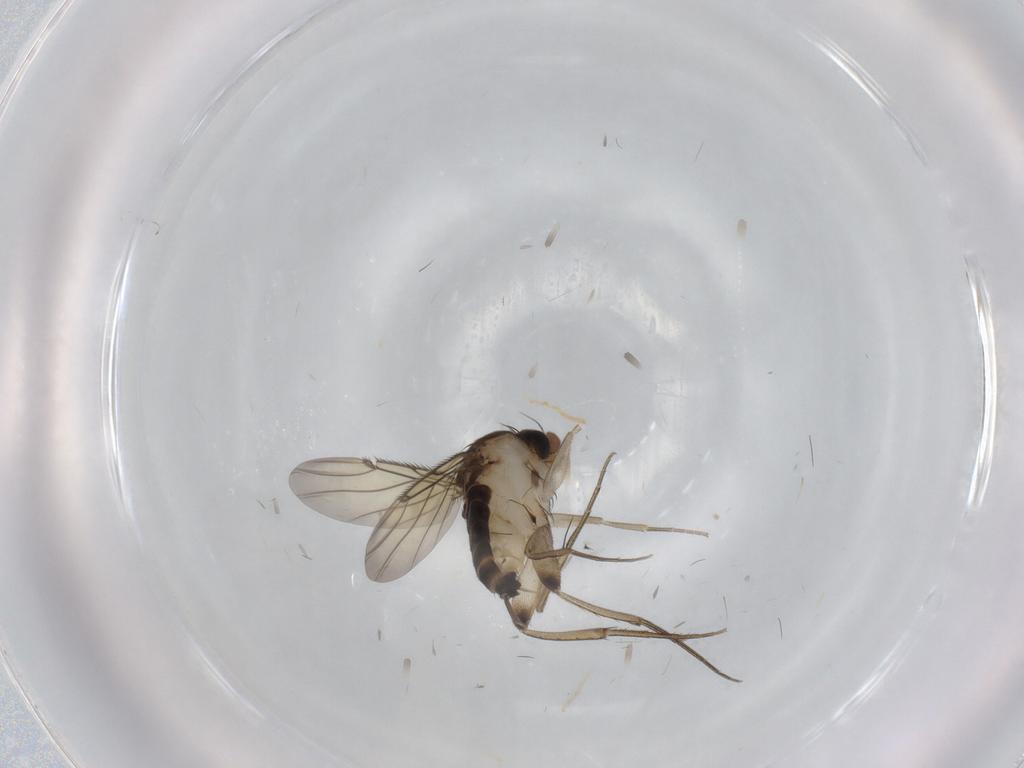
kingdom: Animalia
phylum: Arthropoda
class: Insecta
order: Diptera
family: Phoridae
